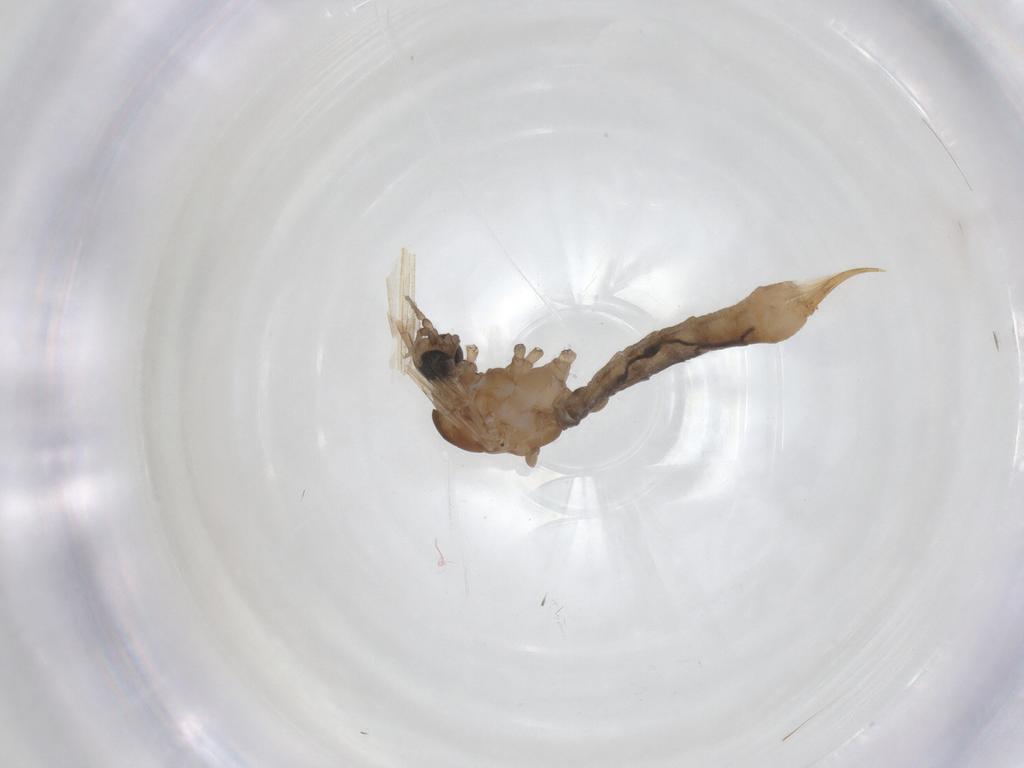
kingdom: Animalia
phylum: Arthropoda
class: Insecta
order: Diptera
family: Limoniidae
